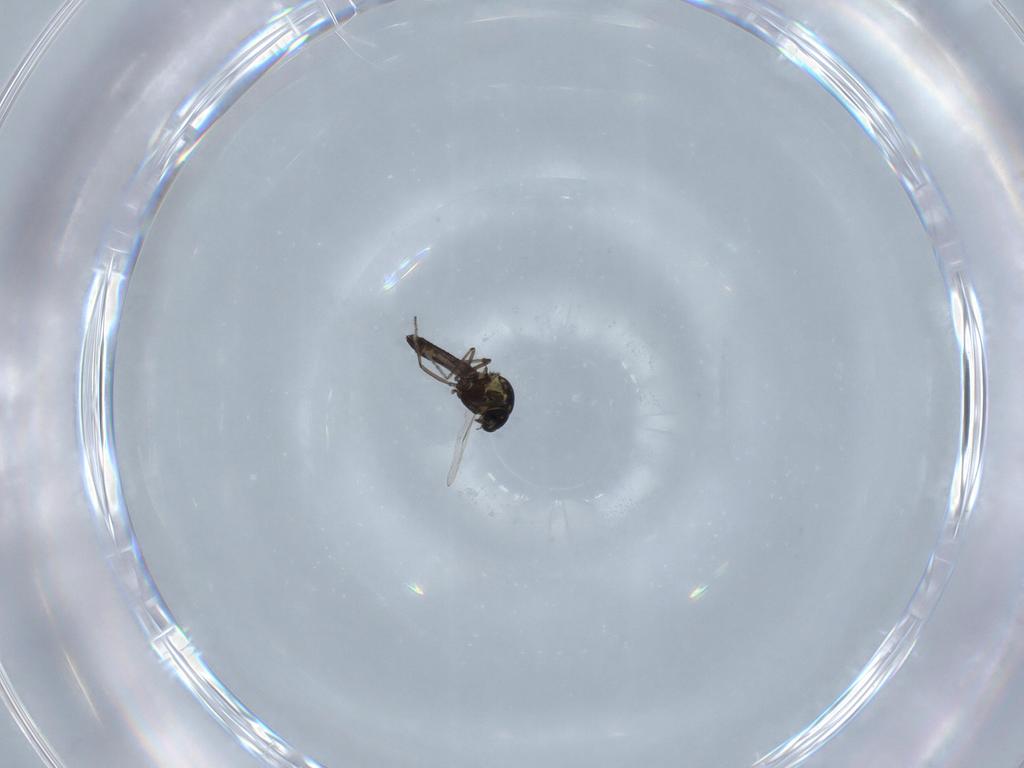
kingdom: Animalia
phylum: Arthropoda
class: Insecta
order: Diptera
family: Ceratopogonidae
